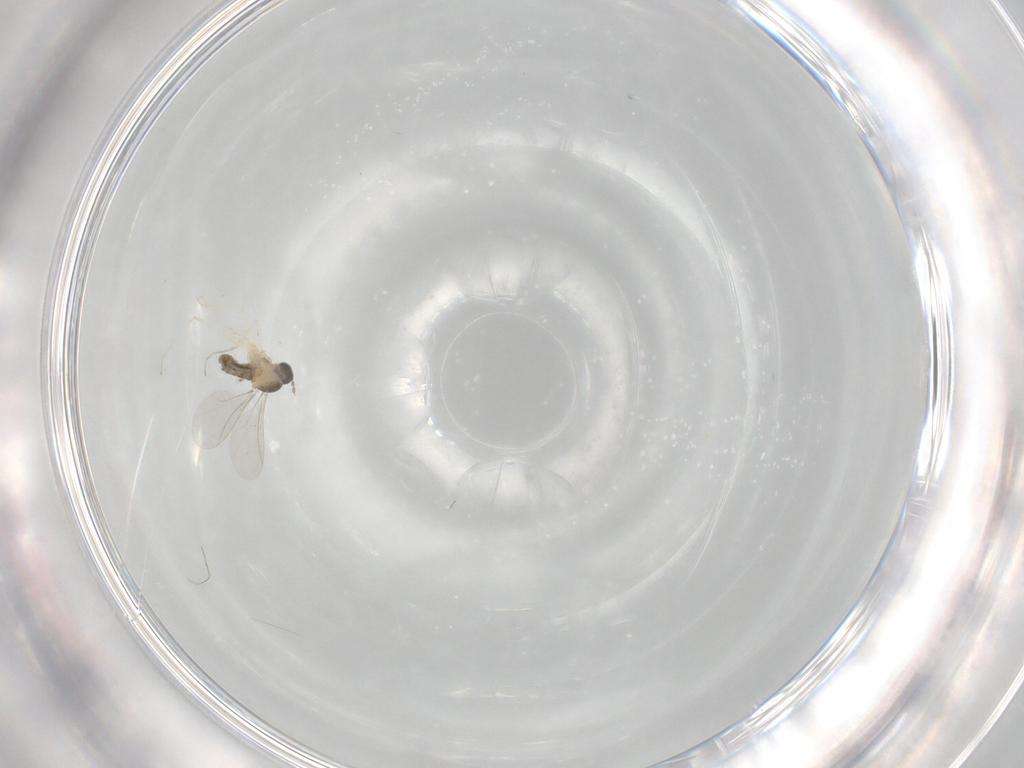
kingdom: Animalia
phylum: Arthropoda
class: Insecta
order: Diptera
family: Cecidomyiidae
